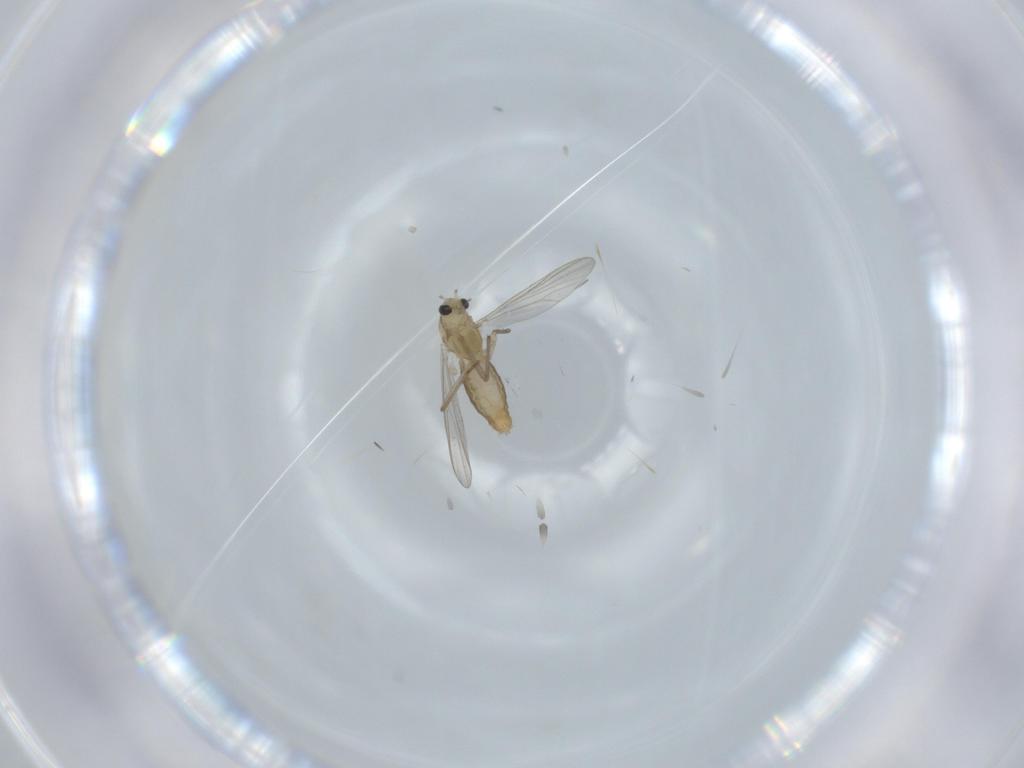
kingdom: Animalia
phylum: Arthropoda
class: Insecta
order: Diptera
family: Chironomidae
